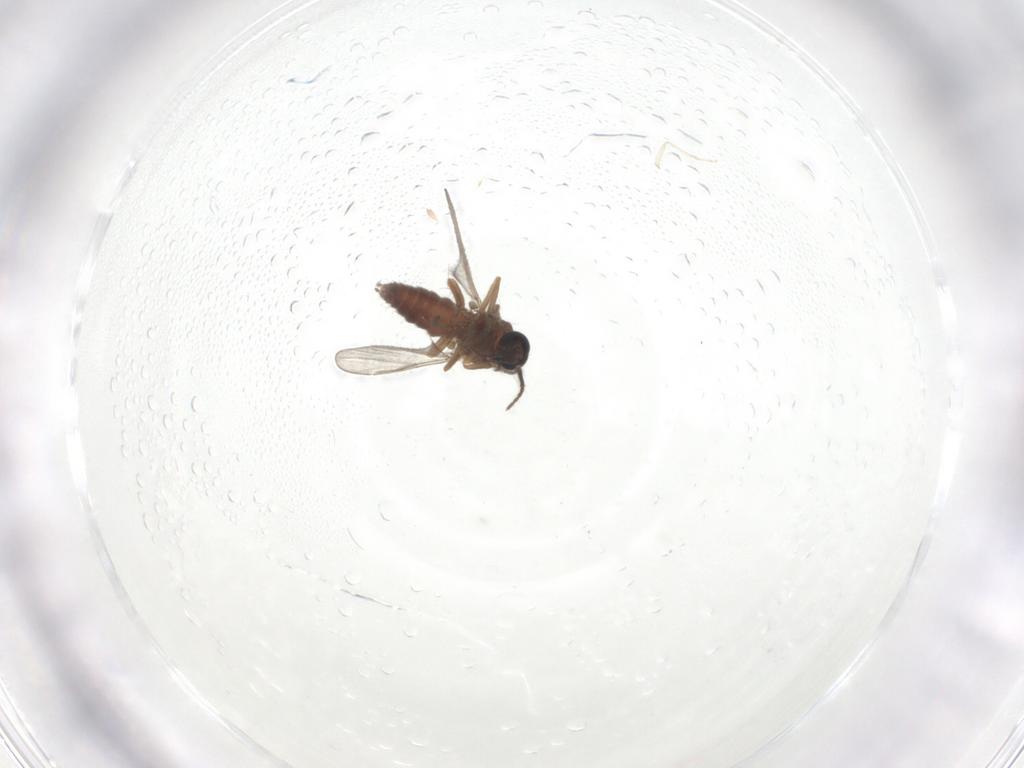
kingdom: Animalia
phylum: Arthropoda
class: Insecta
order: Diptera
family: Ceratopogonidae
